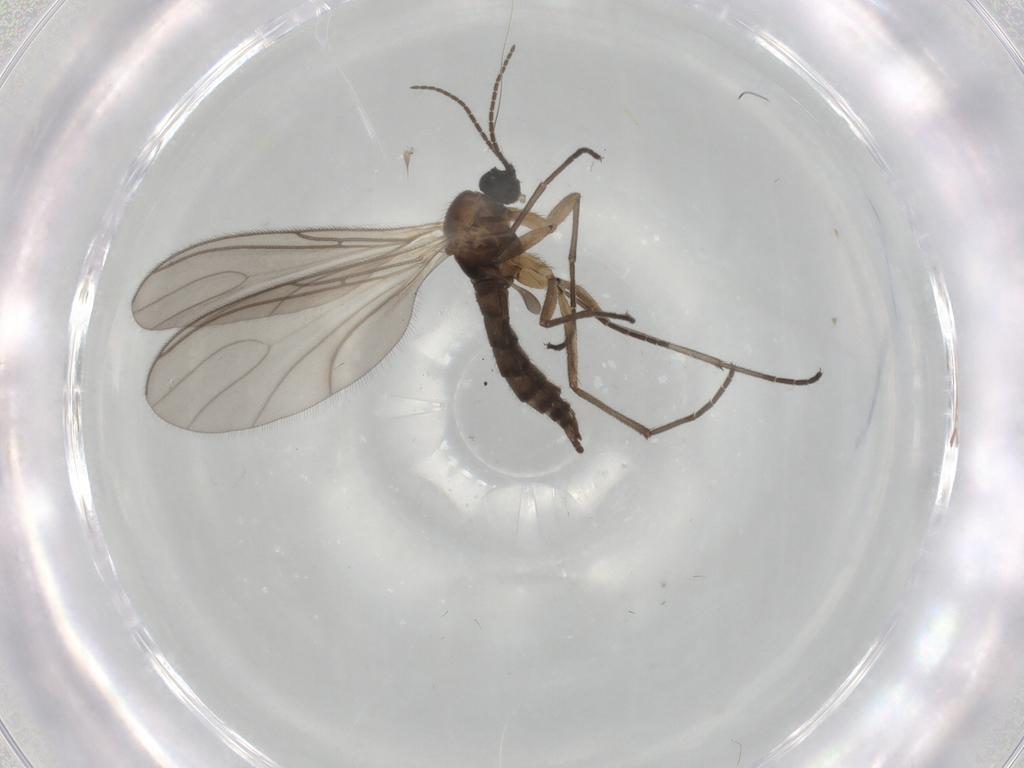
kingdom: Animalia
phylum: Arthropoda
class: Insecta
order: Diptera
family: Sciaridae
